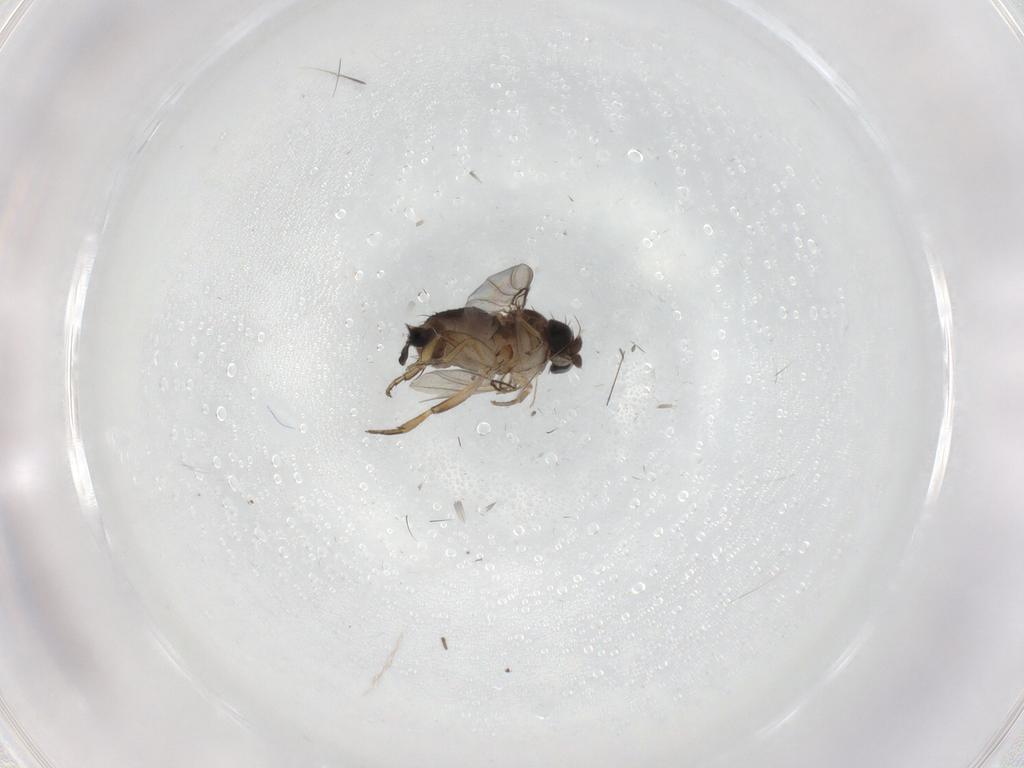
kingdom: Animalia
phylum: Arthropoda
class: Insecta
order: Diptera
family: Phoridae
